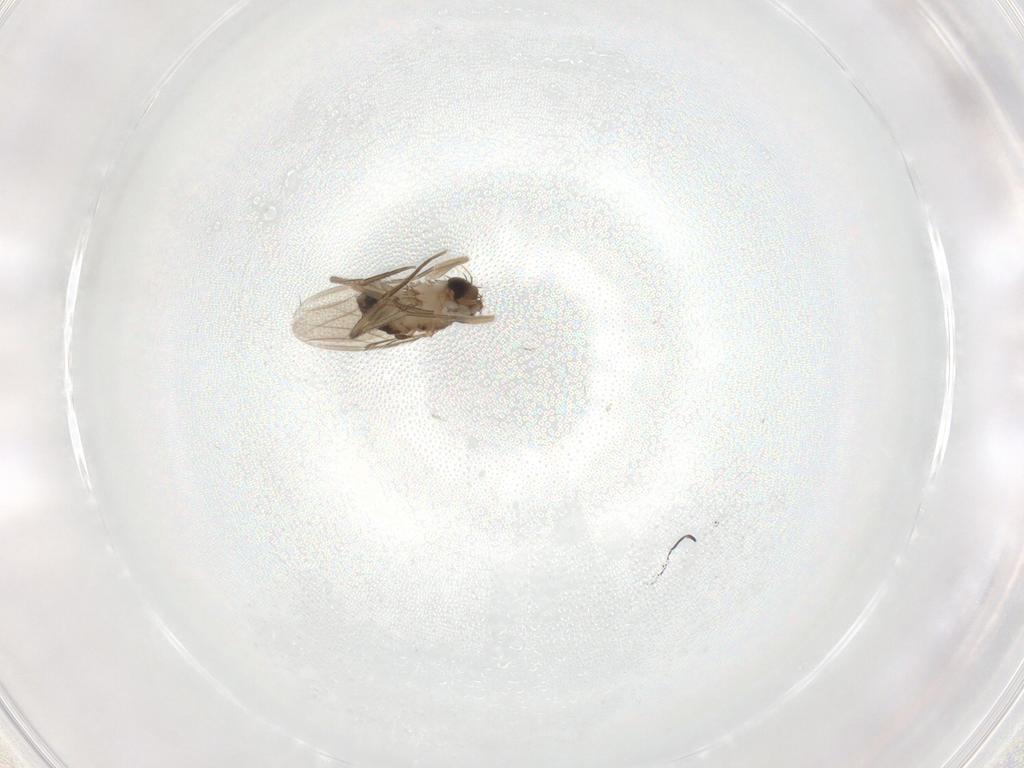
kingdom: Animalia
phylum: Arthropoda
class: Insecta
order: Diptera
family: Phoridae
